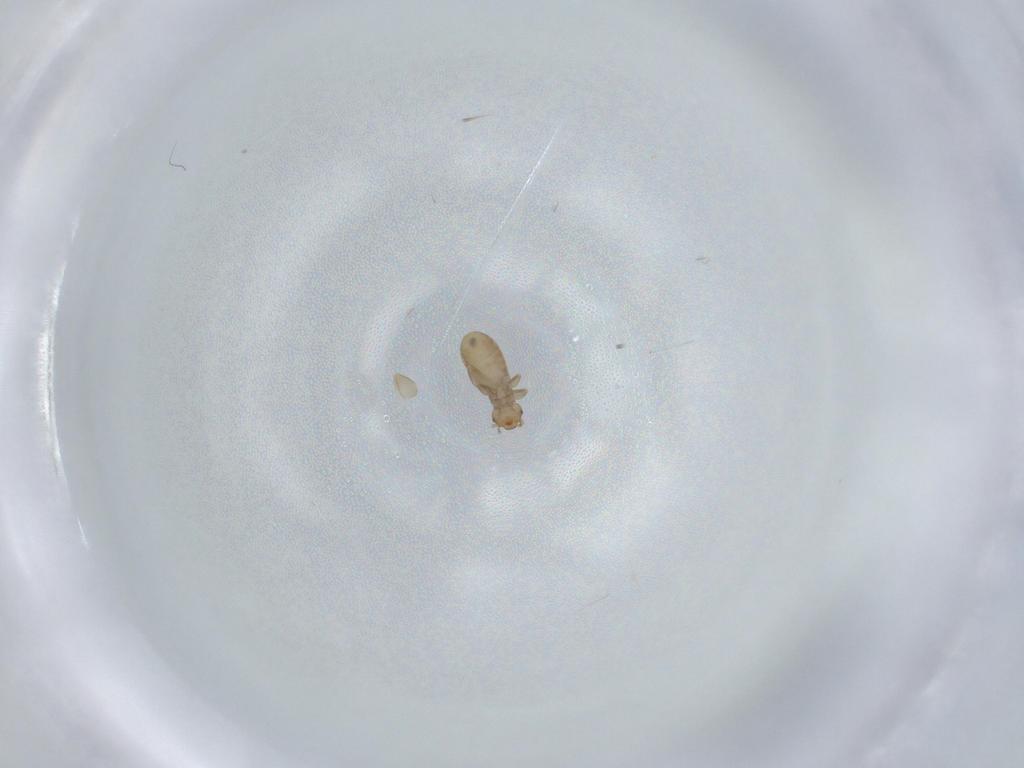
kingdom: Animalia
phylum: Arthropoda
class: Insecta
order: Psocodea
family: Liposcelididae
